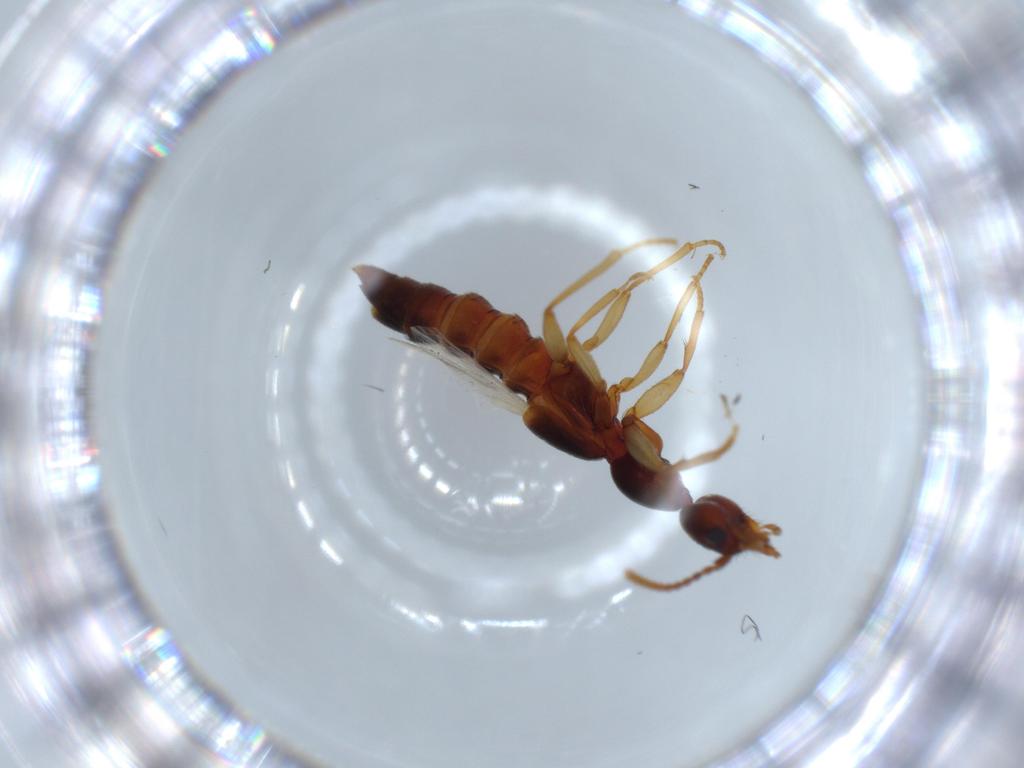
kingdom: Animalia
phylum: Arthropoda
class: Insecta
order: Coleoptera
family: Staphylinidae
